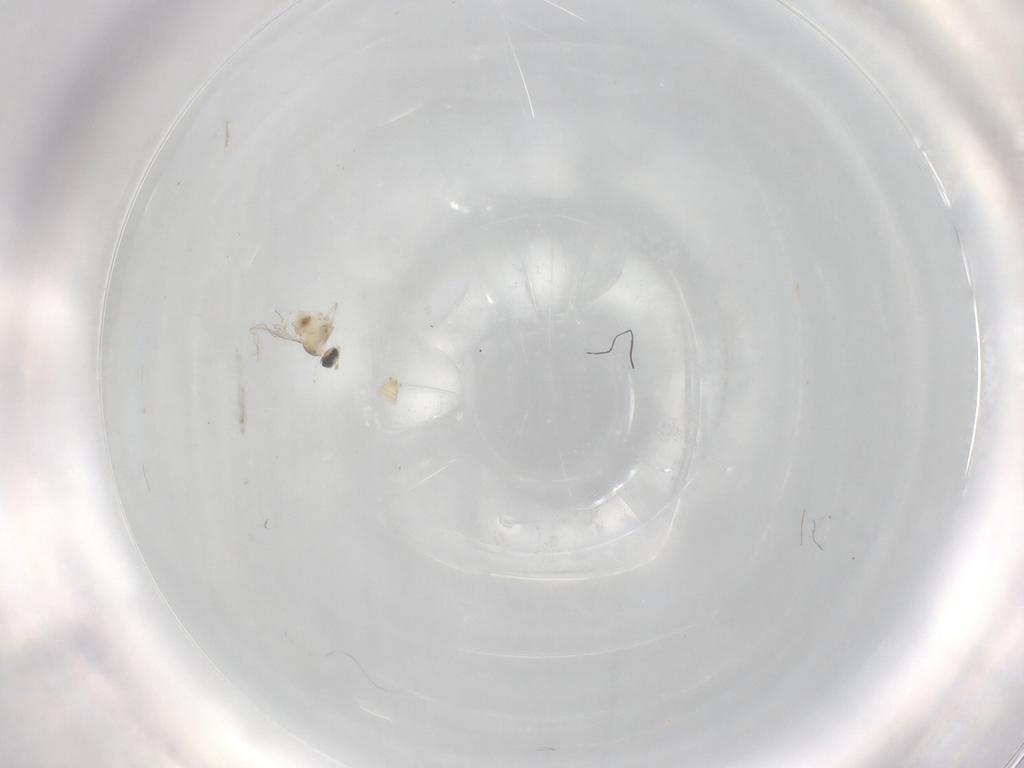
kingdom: Animalia
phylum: Arthropoda
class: Insecta
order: Diptera
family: Cecidomyiidae
